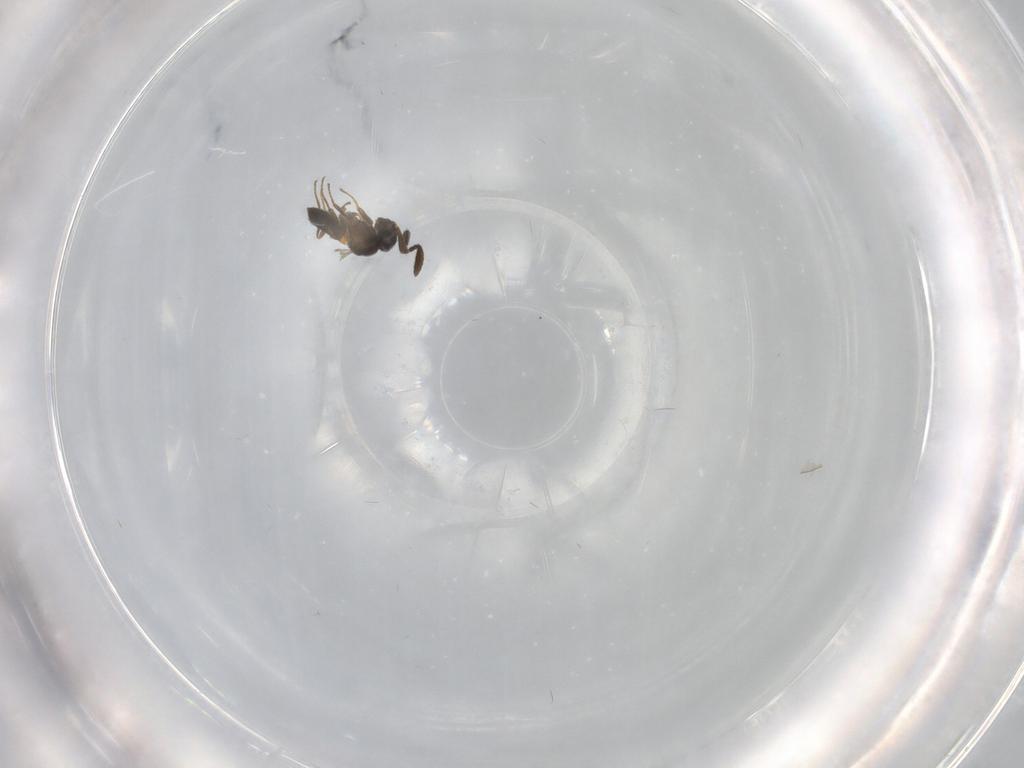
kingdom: Animalia
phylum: Arthropoda
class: Insecta
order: Hymenoptera
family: Scelionidae
